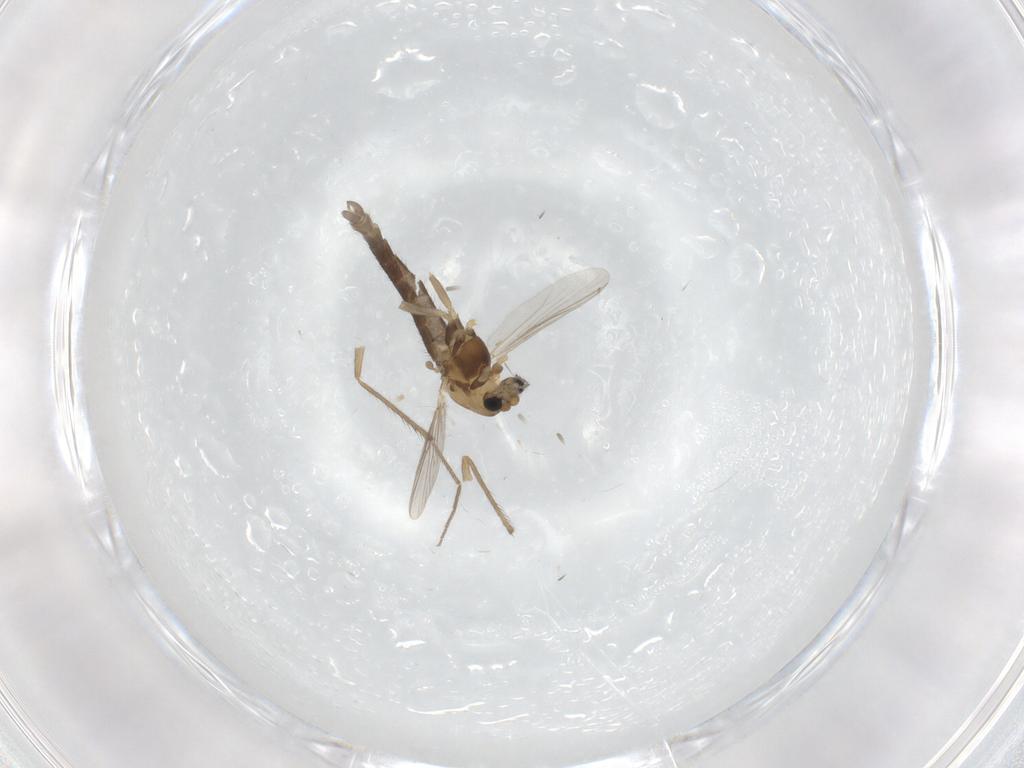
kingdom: Animalia
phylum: Arthropoda
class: Insecta
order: Diptera
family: Chironomidae
